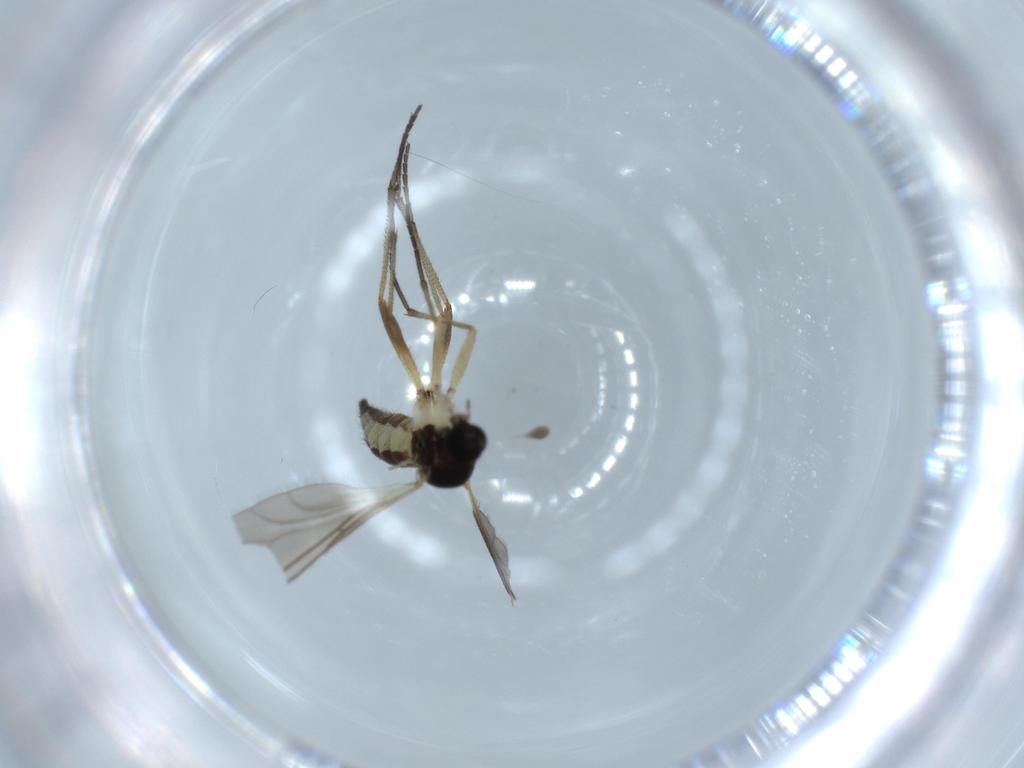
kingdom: Animalia
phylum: Arthropoda
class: Insecta
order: Diptera
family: Sciaridae
